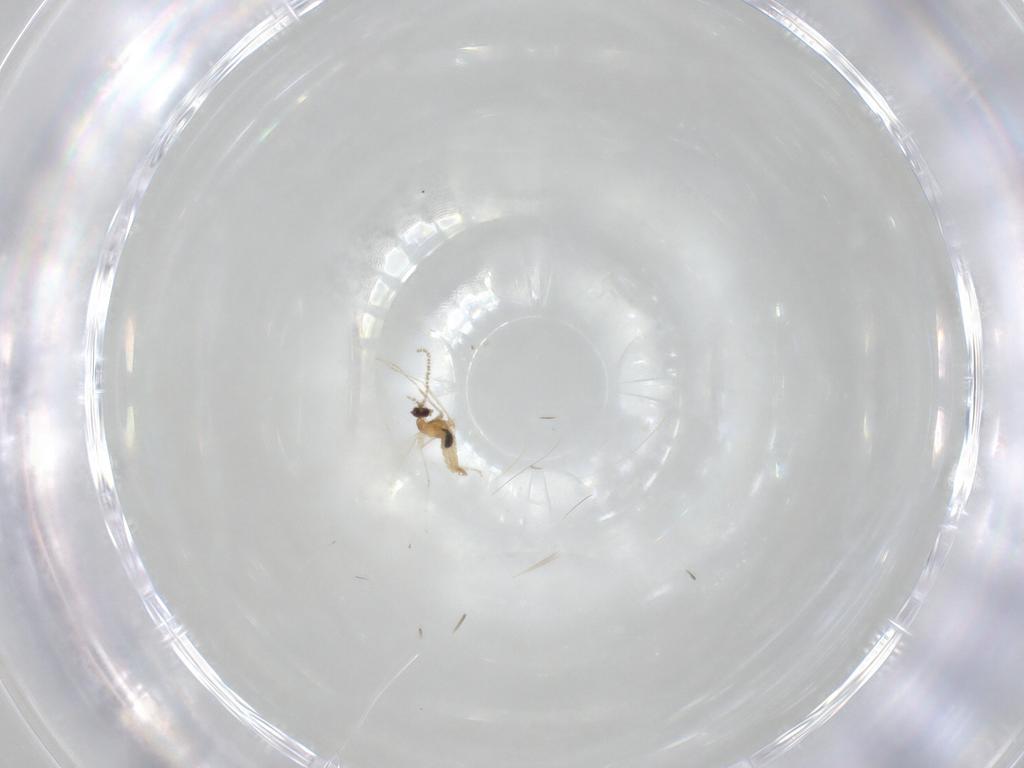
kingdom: Animalia
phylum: Arthropoda
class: Insecta
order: Diptera
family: Cecidomyiidae
